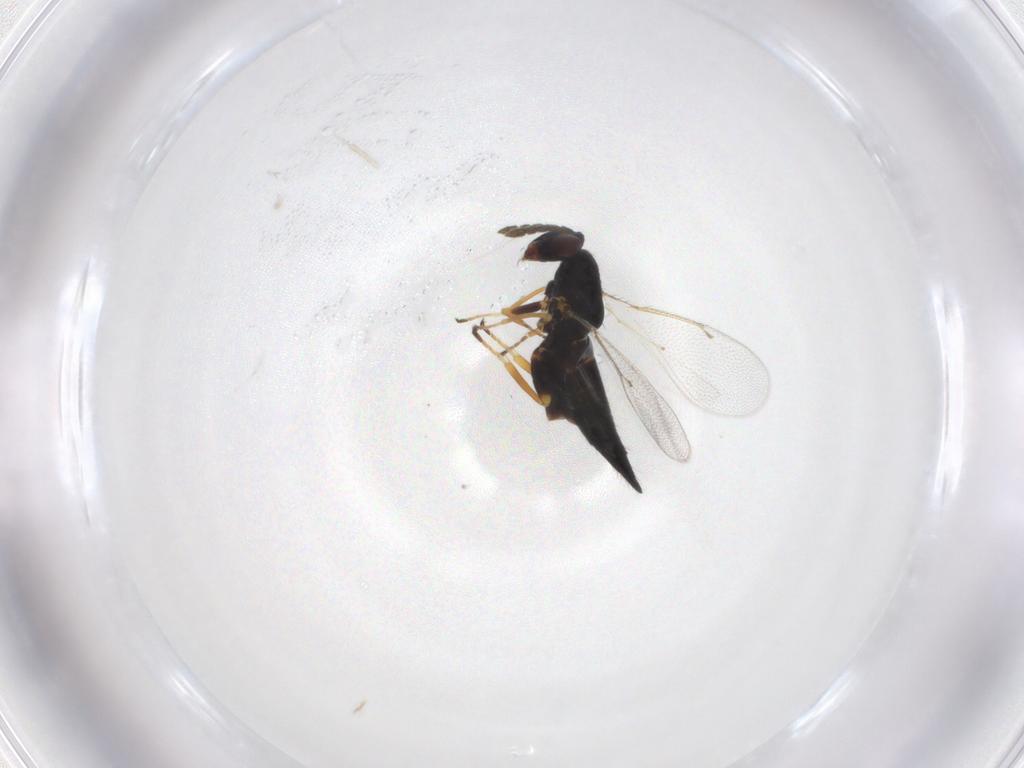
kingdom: Animalia
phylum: Arthropoda
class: Insecta
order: Hymenoptera
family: Eulophidae
